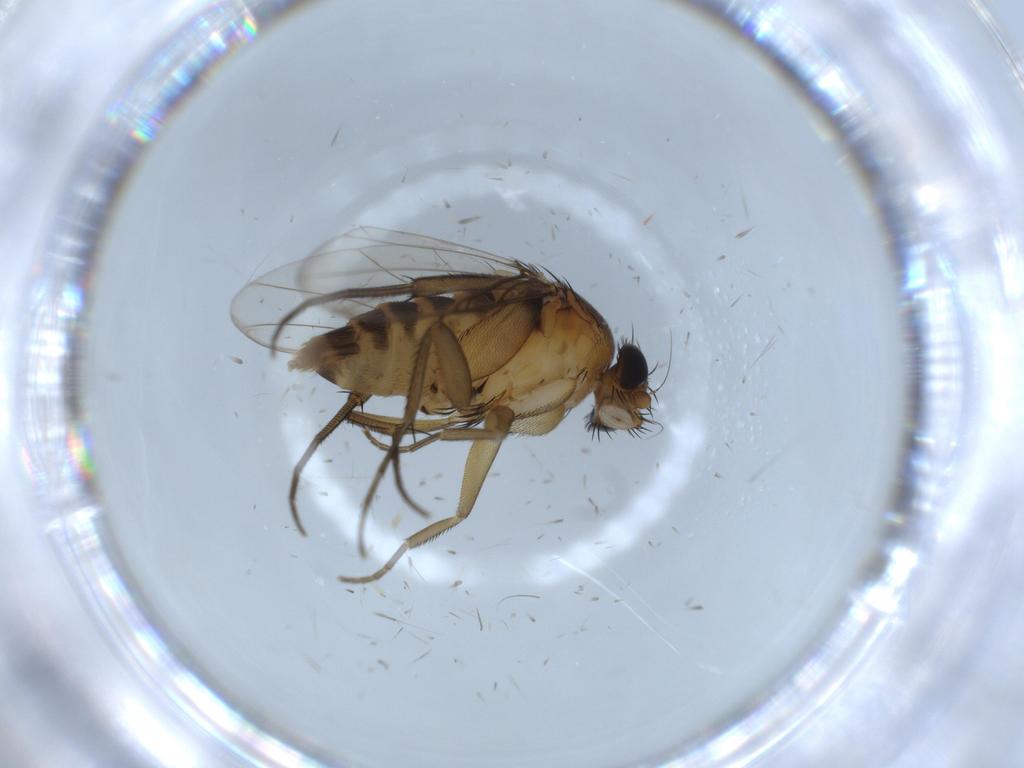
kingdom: Animalia
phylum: Arthropoda
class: Insecta
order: Diptera
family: Phoridae
